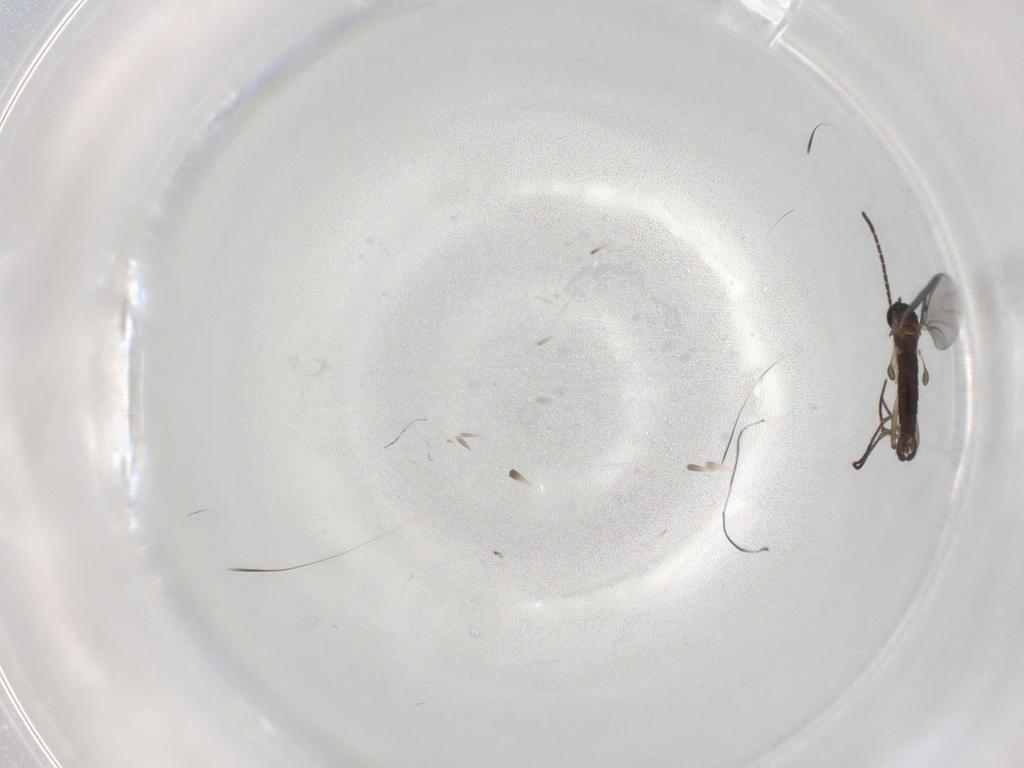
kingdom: Animalia
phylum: Arthropoda
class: Insecta
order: Diptera
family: Sciaridae
